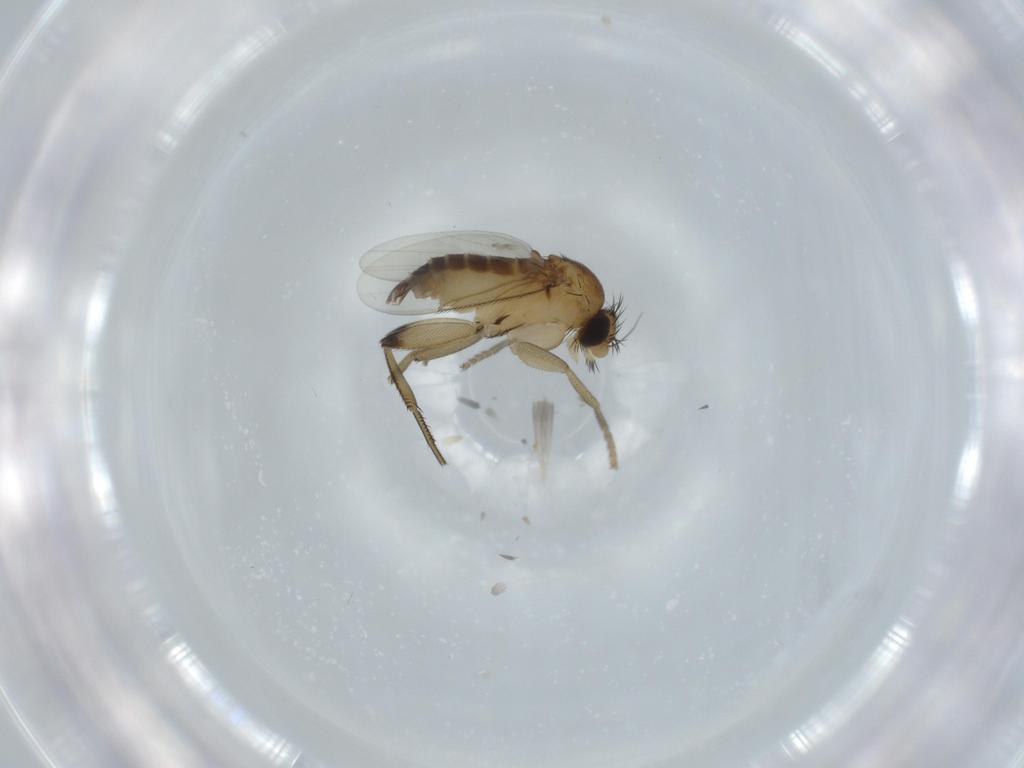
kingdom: Animalia
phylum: Arthropoda
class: Insecta
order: Diptera
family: Phoridae
